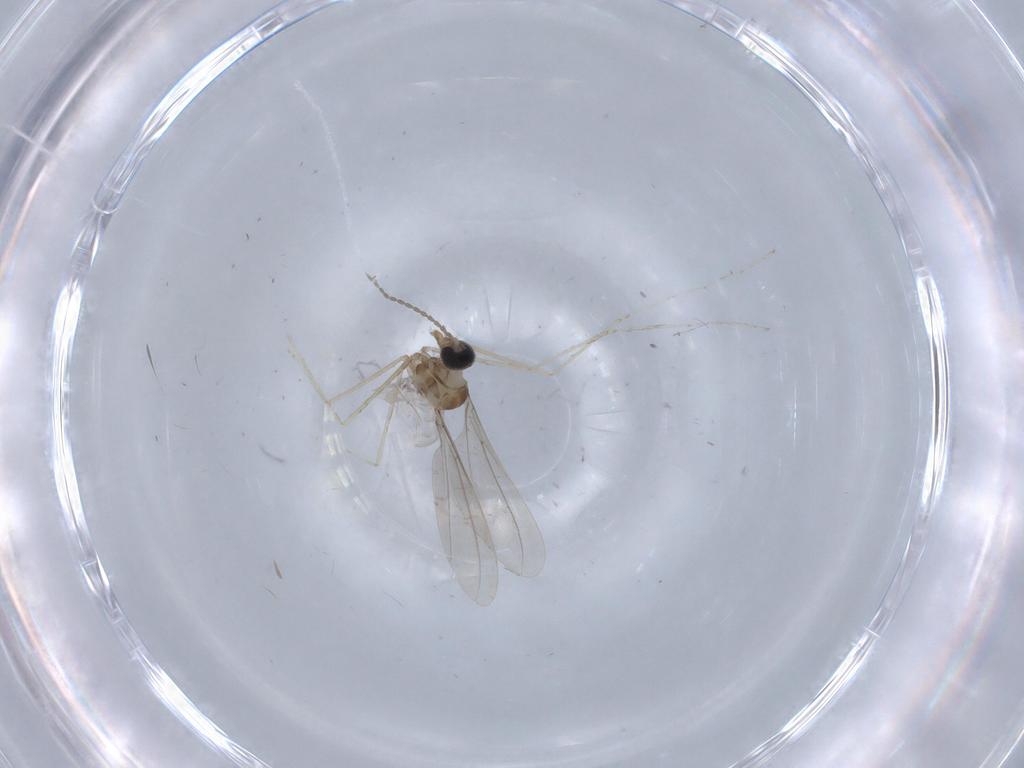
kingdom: Animalia
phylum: Arthropoda
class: Insecta
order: Diptera
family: Cecidomyiidae
